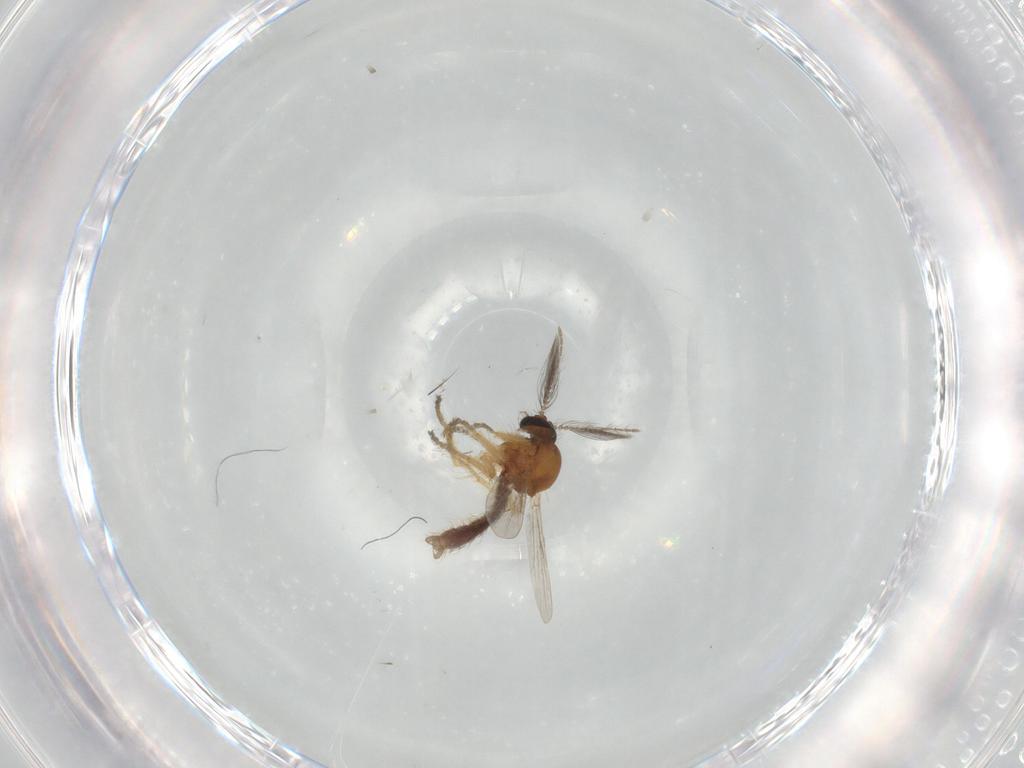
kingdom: Animalia
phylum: Arthropoda
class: Insecta
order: Diptera
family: Ceratopogonidae
